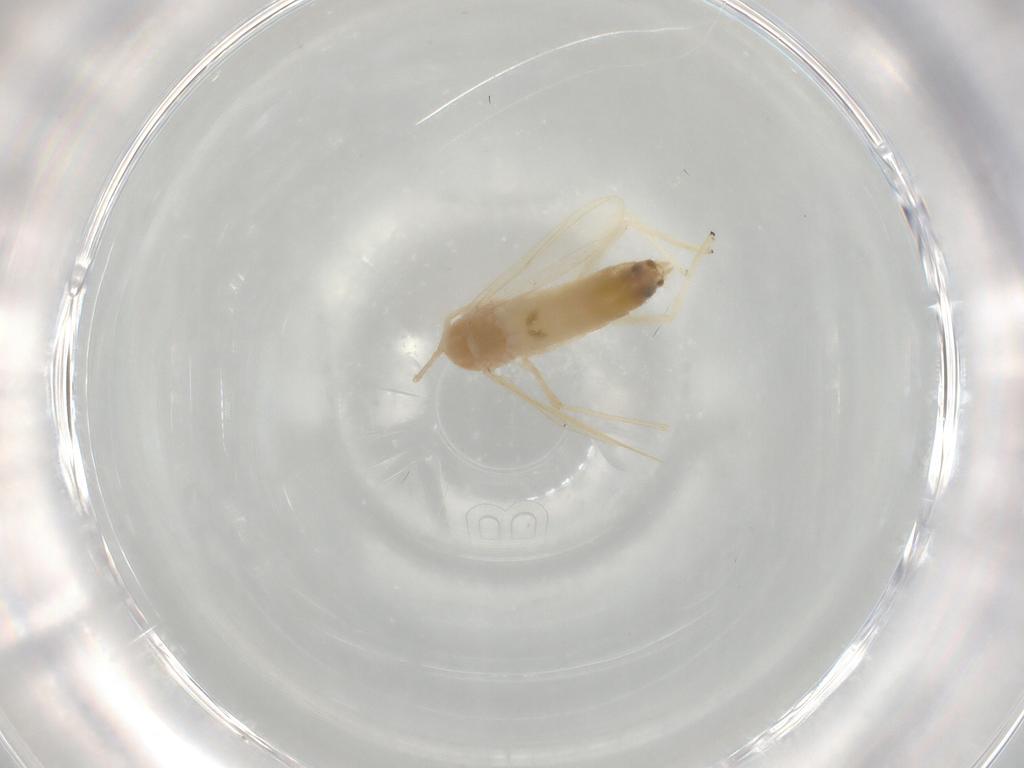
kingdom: Animalia
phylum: Arthropoda
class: Insecta
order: Diptera
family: Chironomidae
